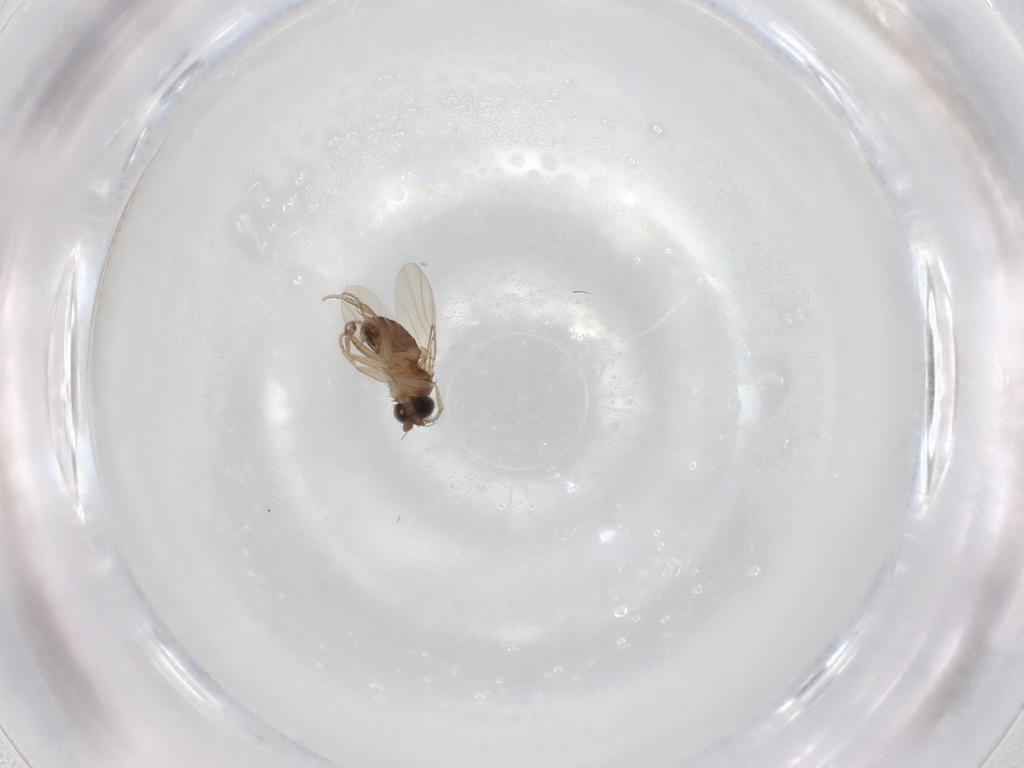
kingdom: Animalia
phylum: Arthropoda
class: Insecta
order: Diptera
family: Phoridae
